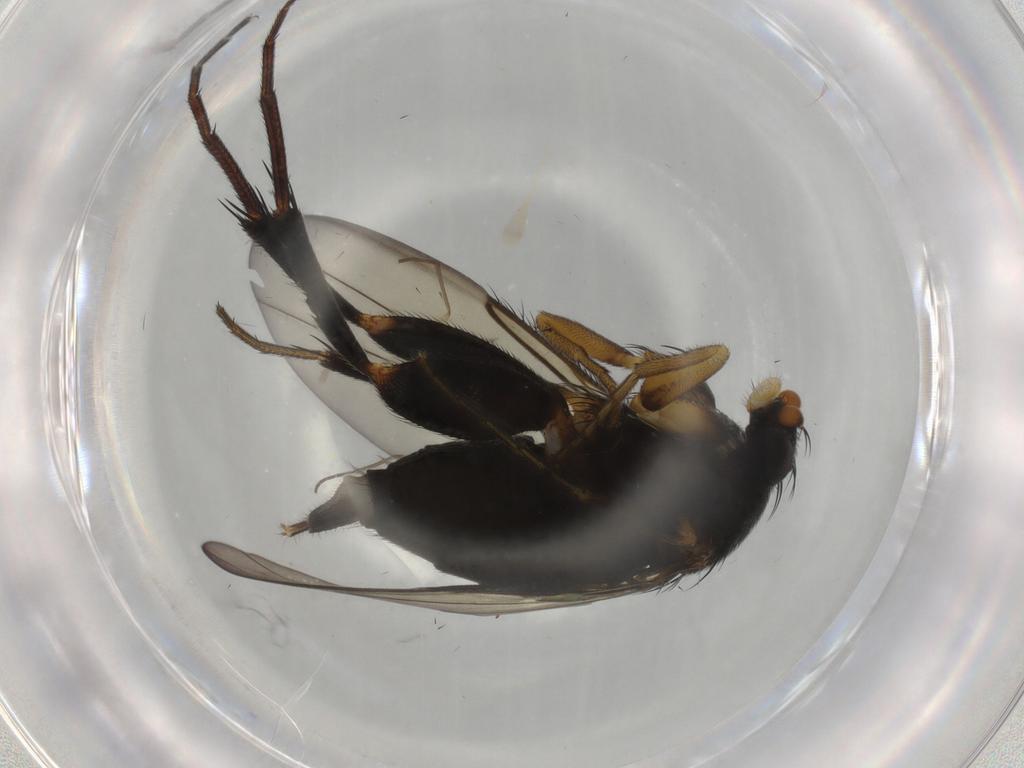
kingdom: Animalia
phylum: Arthropoda
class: Insecta
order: Diptera
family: Phoridae
